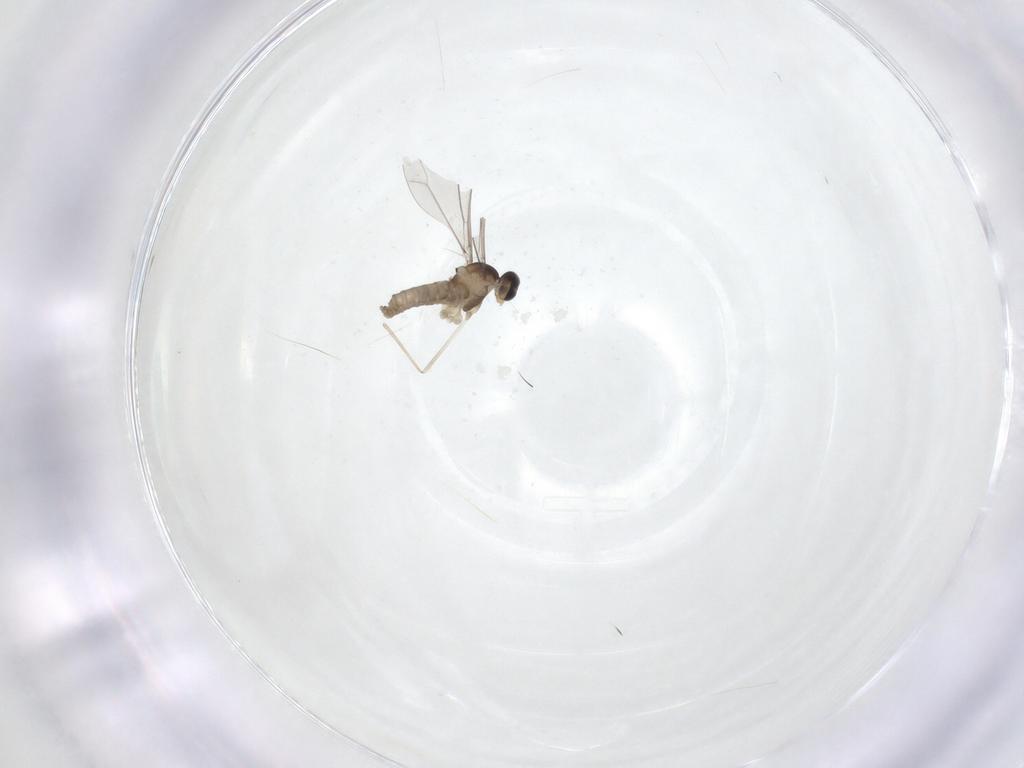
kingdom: Animalia
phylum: Arthropoda
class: Insecta
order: Diptera
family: Cecidomyiidae
